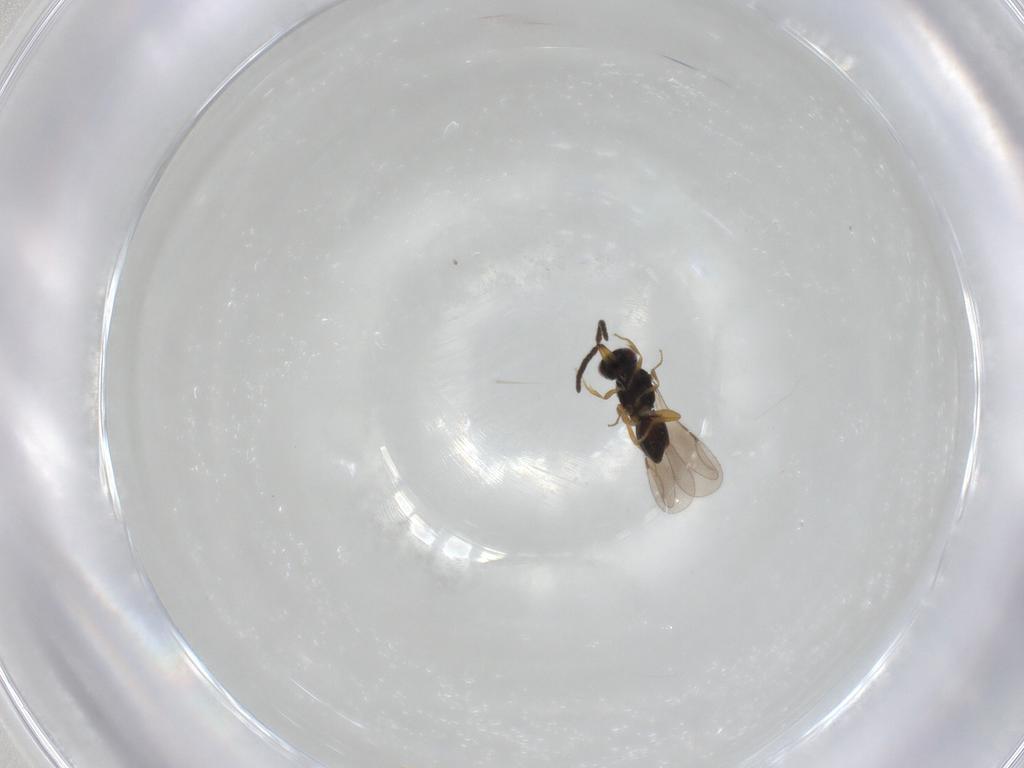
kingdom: Animalia
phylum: Arthropoda
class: Insecta
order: Hymenoptera
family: Ceraphronidae
